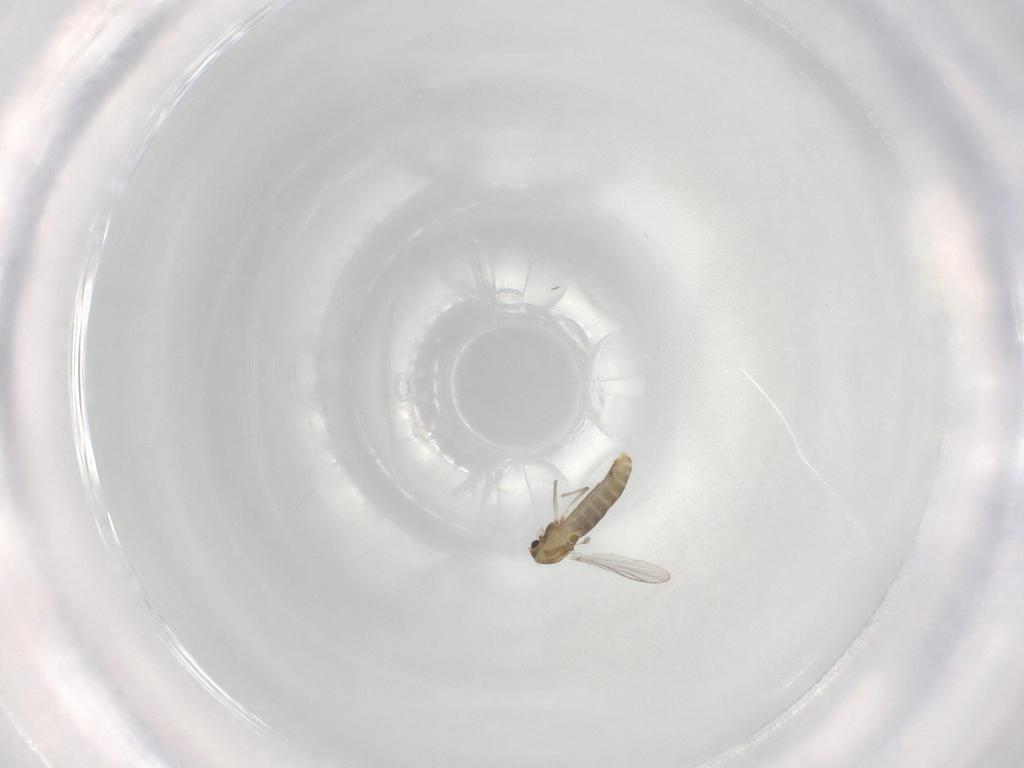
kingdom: Animalia
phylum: Arthropoda
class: Insecta
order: Diptera
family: Chironomidae
